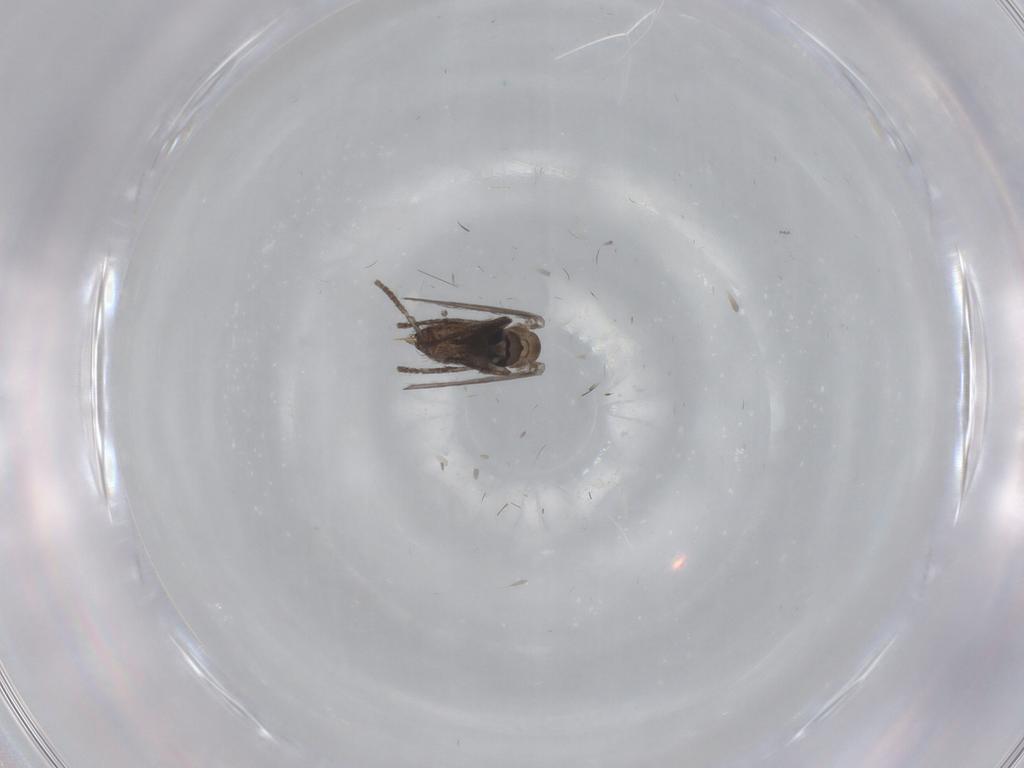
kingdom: Animalia
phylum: Arthropoda
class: Insecta
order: Diptera
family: Psychodidae
